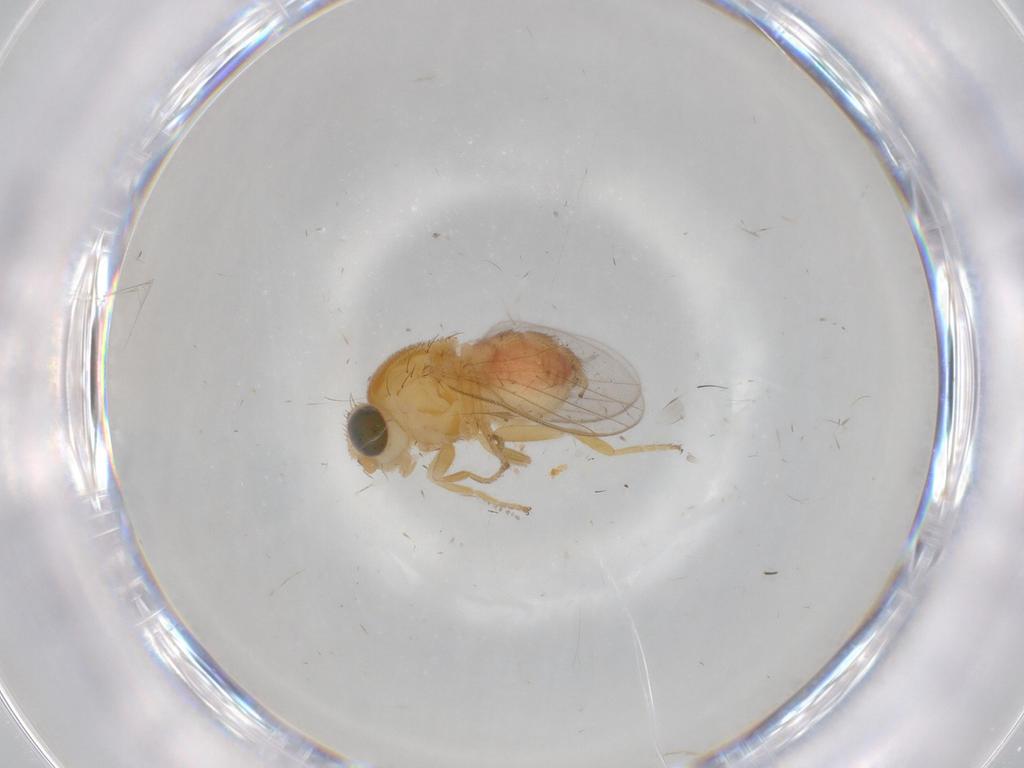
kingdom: Animalia
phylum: Arthropoda
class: Insecta
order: Diptera
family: Chloropidae
